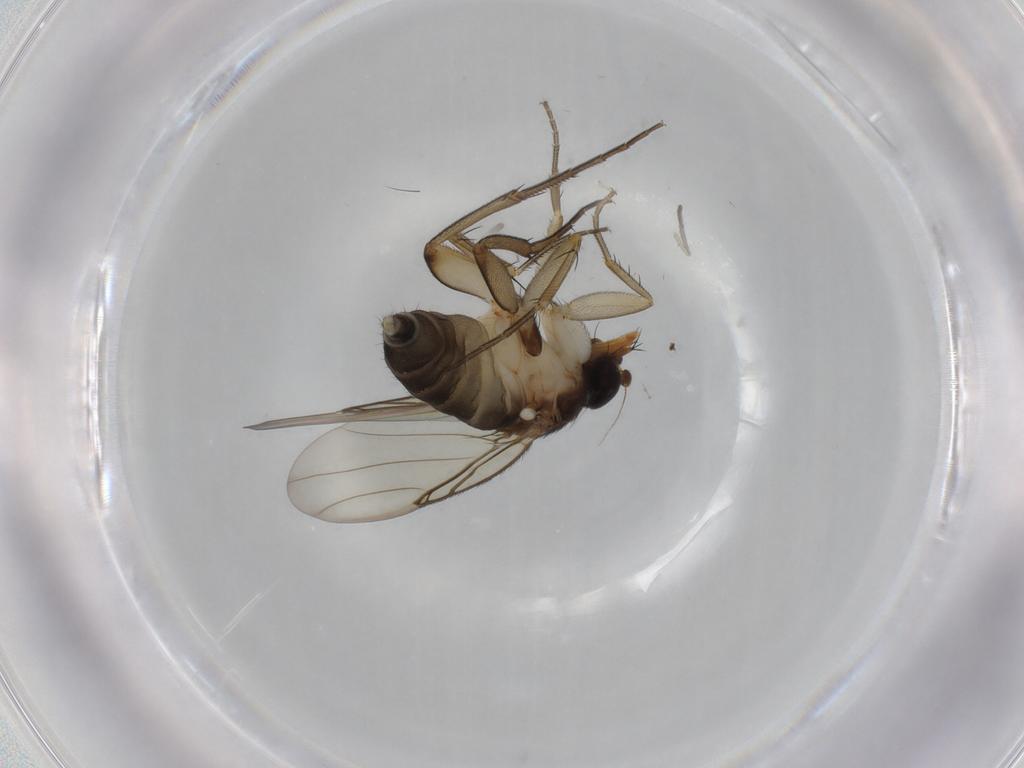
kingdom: Animalia
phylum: Arthropoda
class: Insecta
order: Diptera
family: Phoridae
